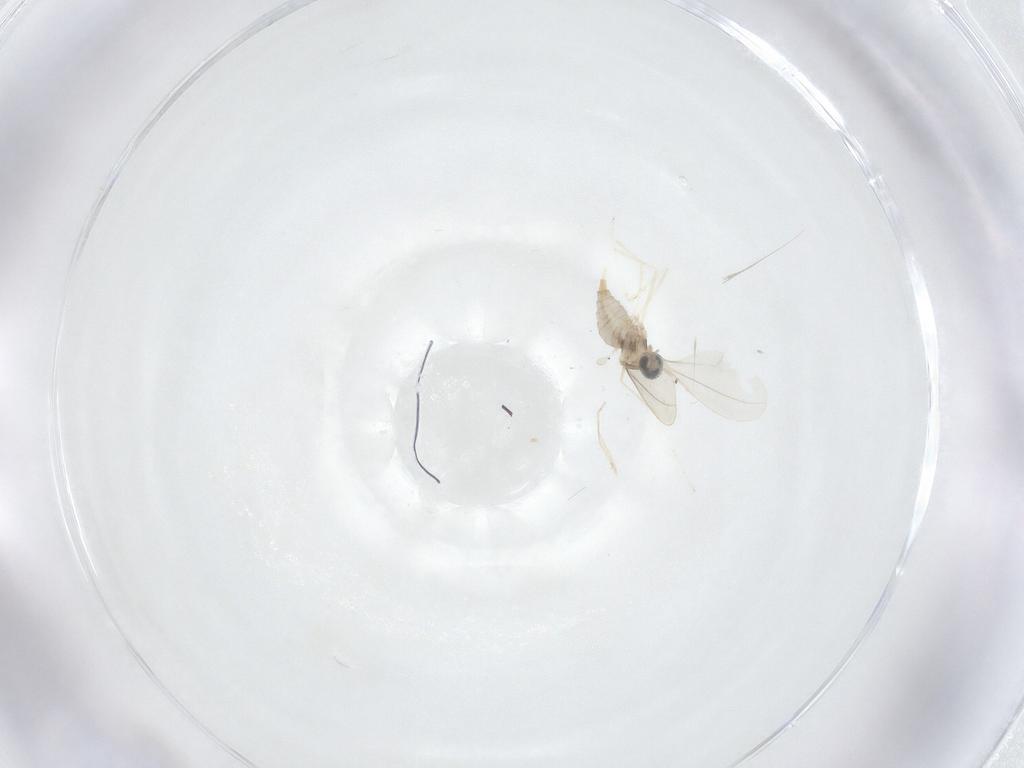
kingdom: Animalia
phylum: Arthropoda
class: Insecta
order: Diptera
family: Cecidomyiidae
